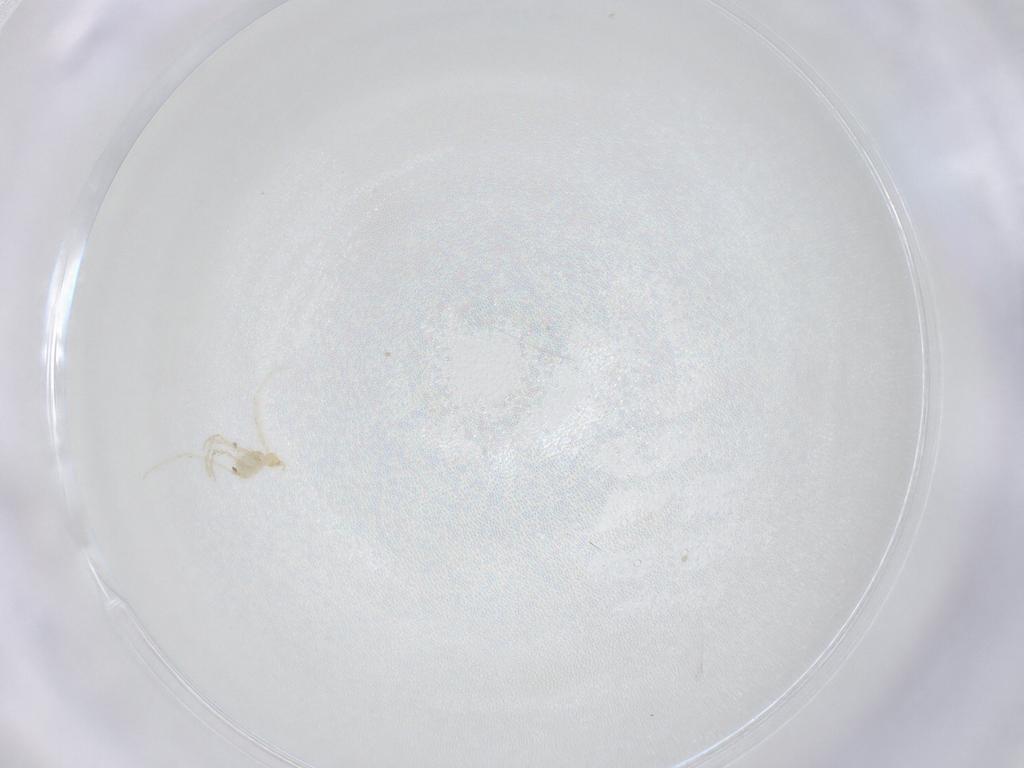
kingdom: Animalia
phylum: Arthropoda
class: Arachnida
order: Trombidiformes
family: Erythraeidae
